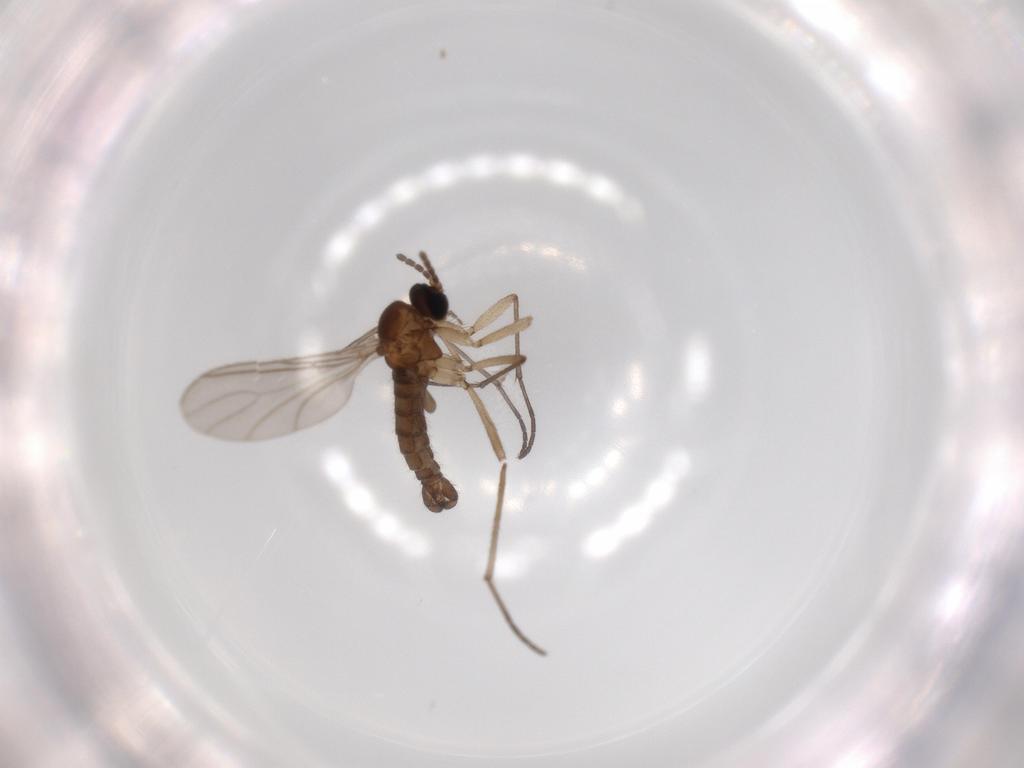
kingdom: Animalia
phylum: Arthropoda
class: Insecta
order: Diptera
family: Sciaridae
